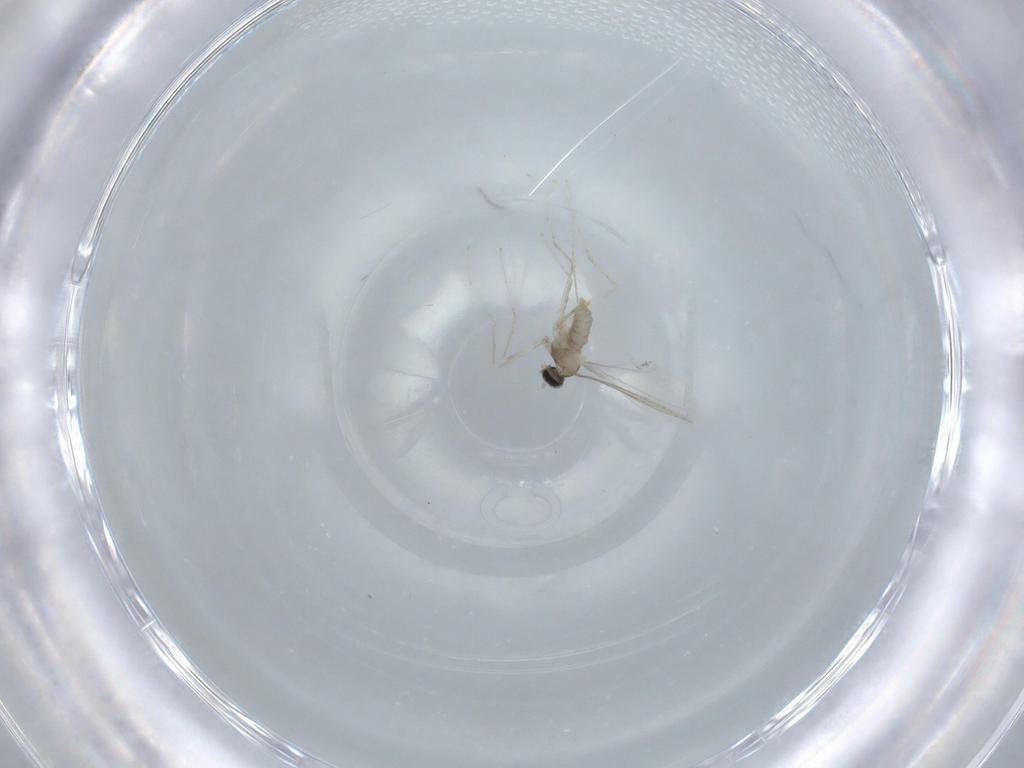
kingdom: Animalia
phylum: Arthropoda
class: Insecta
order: Diptera
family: Cecidomyiidae
